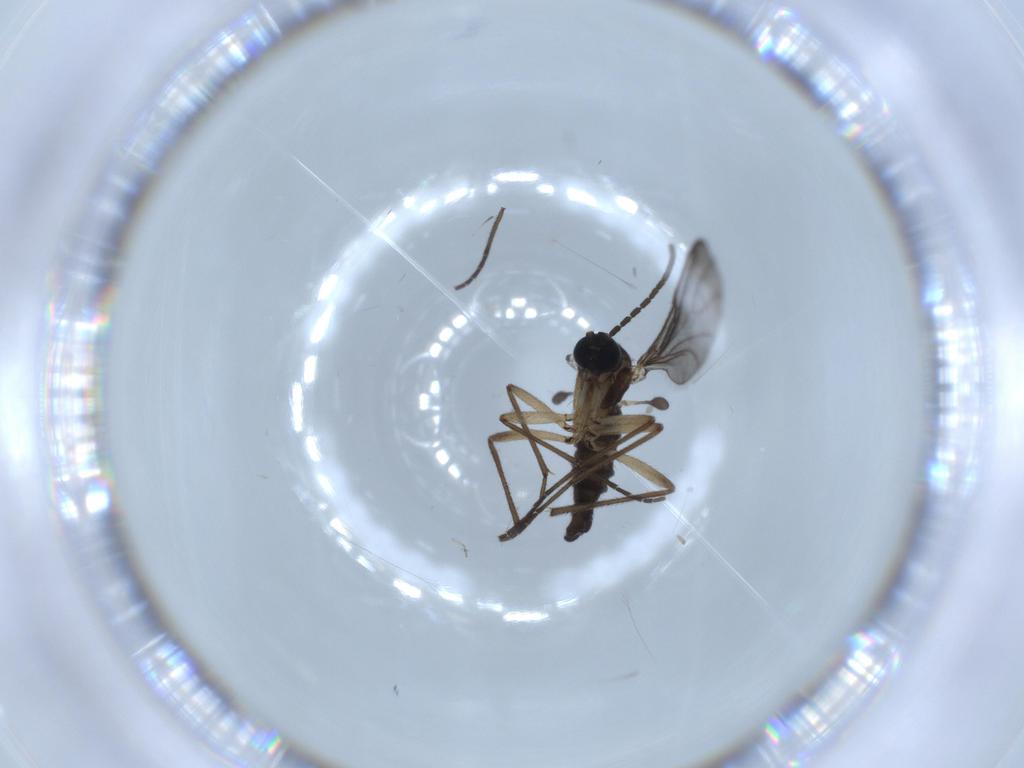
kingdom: Animalia
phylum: Arthropoda
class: Insecta
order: Diptera
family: Sciaridae
